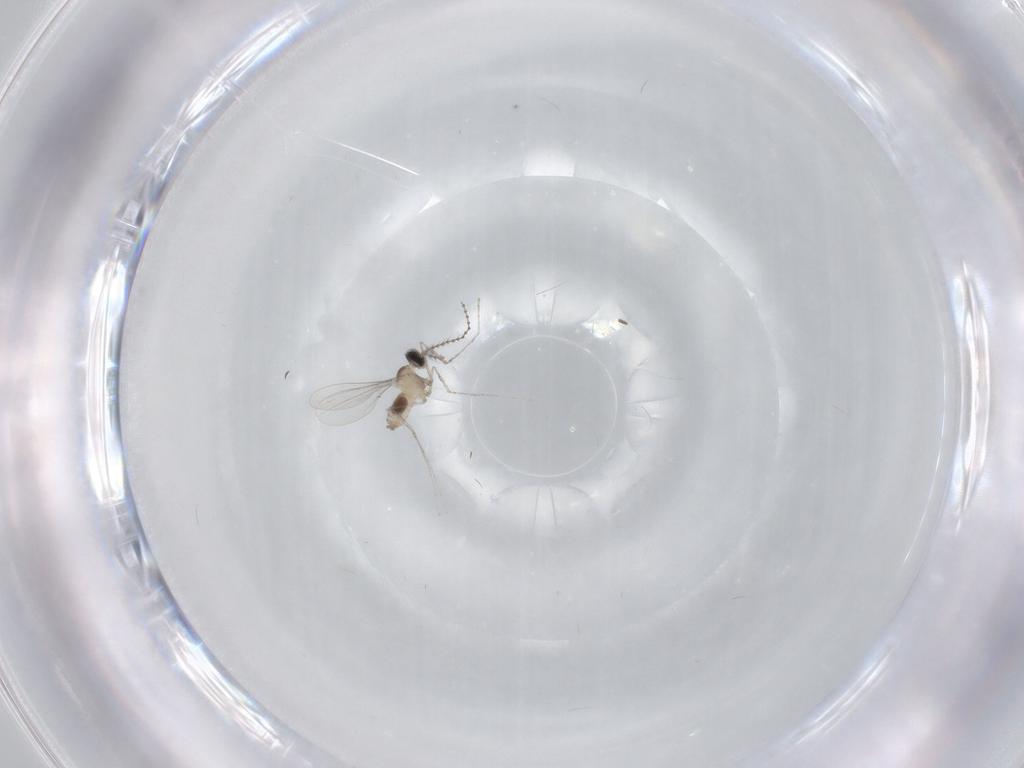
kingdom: Animalia
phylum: Arthropoda
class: Insecta
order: Diptera
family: Cecidomyiidae
